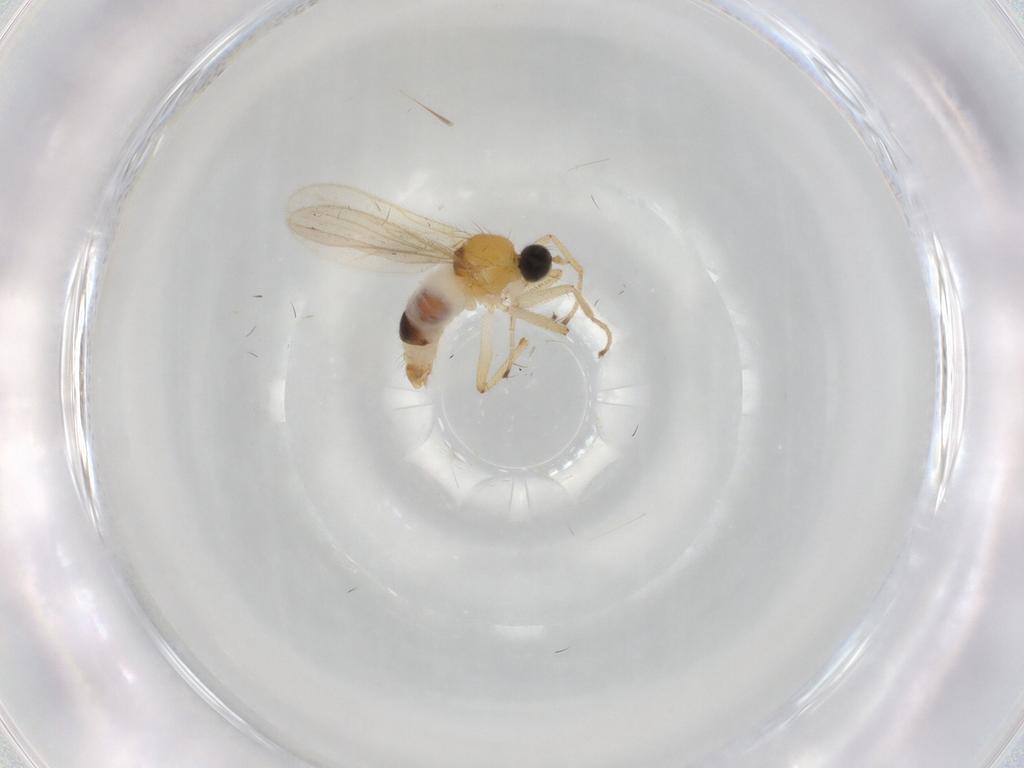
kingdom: Animalia
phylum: Arthropoda
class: Insecta
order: Diptera
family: Hybotidae
